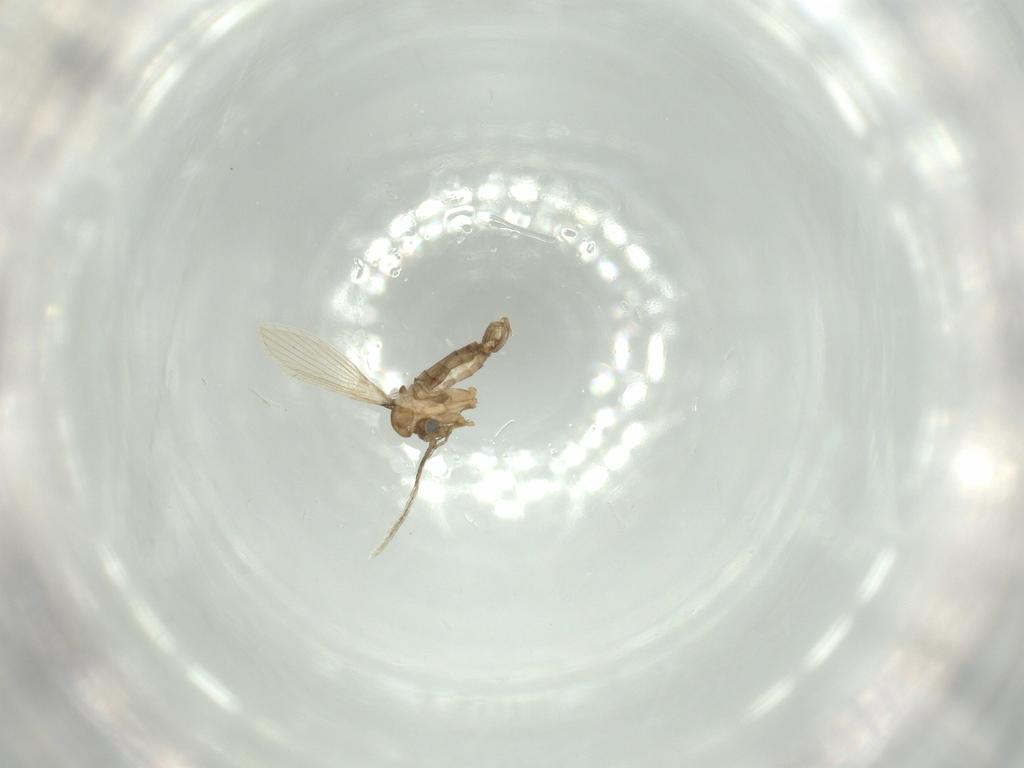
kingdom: Animalia
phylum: Arthropoda
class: Insecta
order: Diptera
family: Psychodidae
